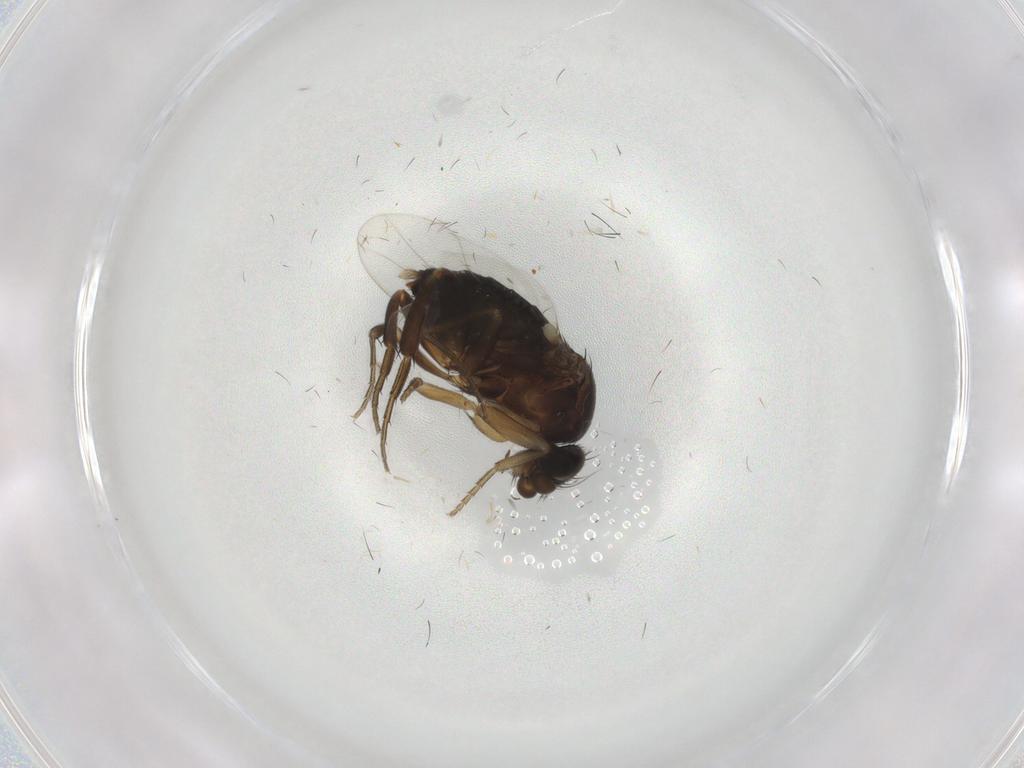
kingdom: Animalia
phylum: Arthropoda
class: Insecta
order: Diptera
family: Phoridae
